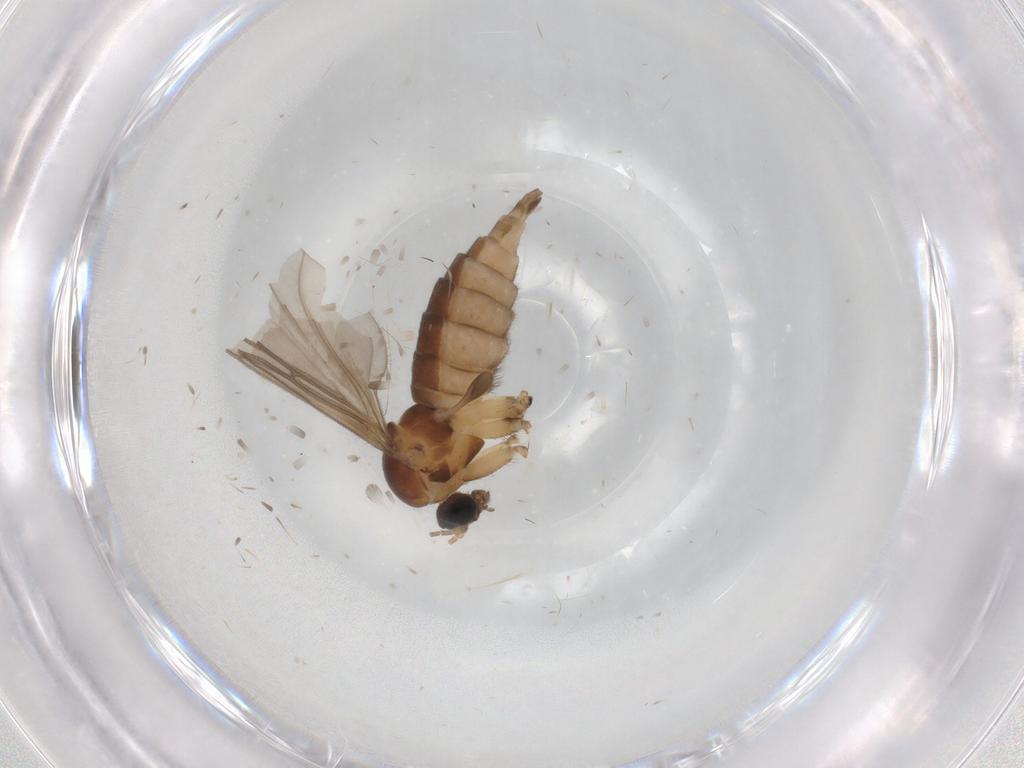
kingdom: Animalia
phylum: Arthropoda
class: Insecta
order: Diptera
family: Sciaridae
